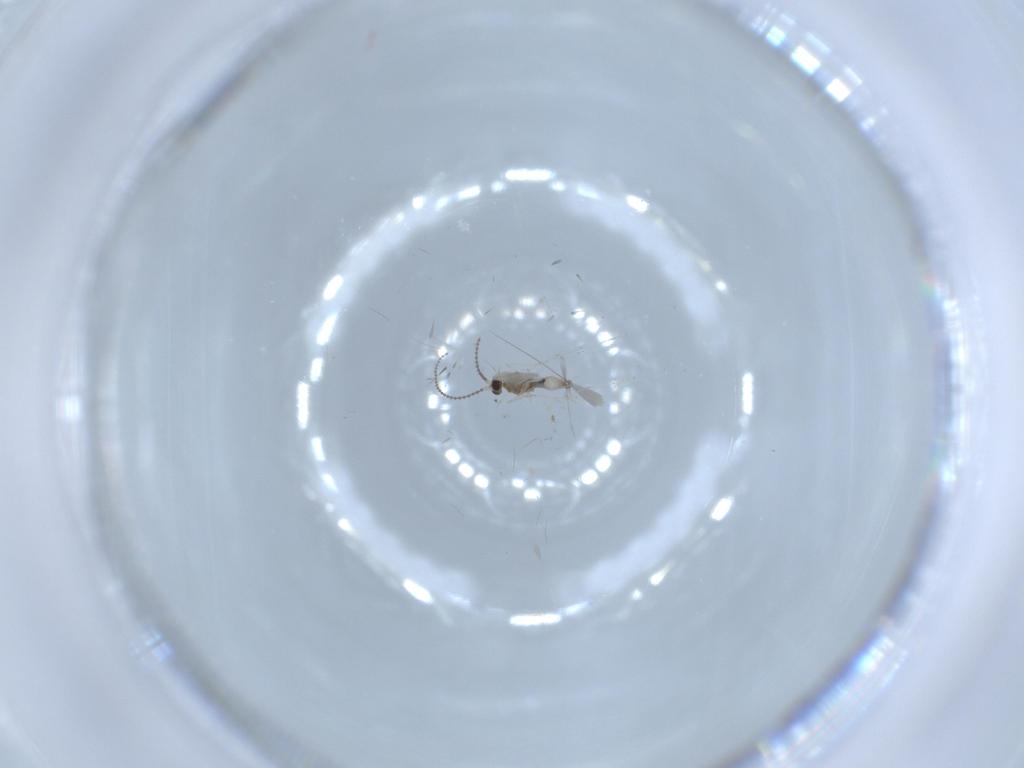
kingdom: Animalia
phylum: Arthropoda
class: Insecta
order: Diptera
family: Cecidomyiidae
